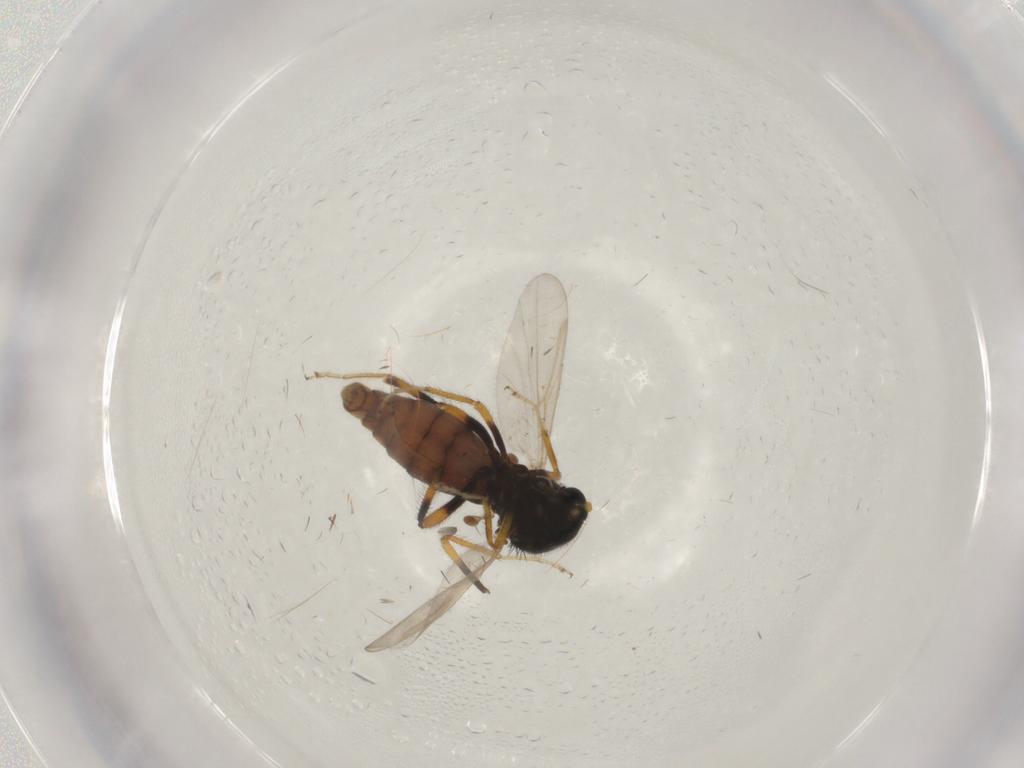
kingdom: Animalia
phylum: Arthropoda
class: Insecta
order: Diptera
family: Ceratopogonidae
